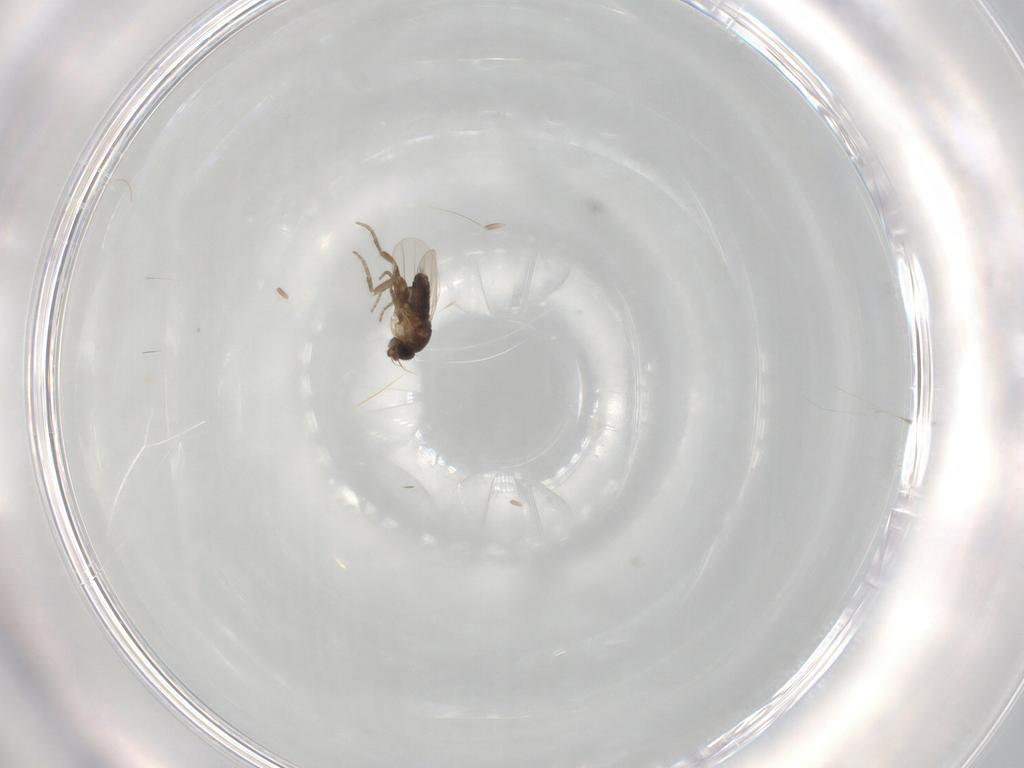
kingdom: Animalia
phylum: Arthropoda
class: Insecta
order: Diptera
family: Phoridae
